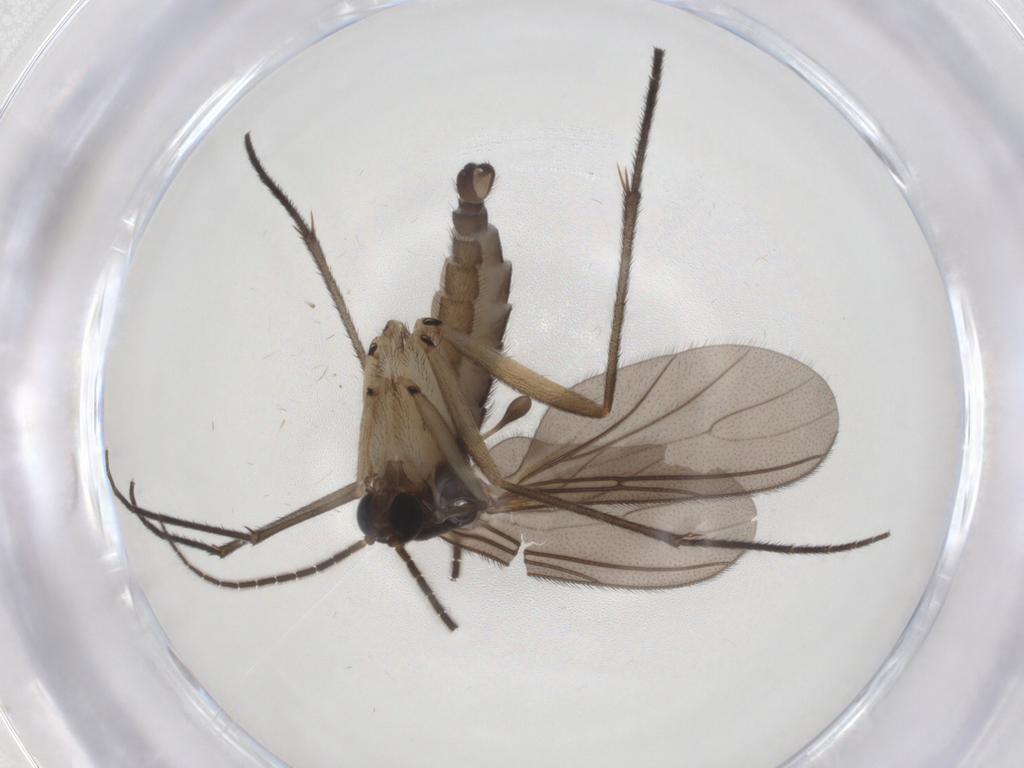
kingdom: Animalia
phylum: Arthropoda
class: Insecta
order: Diptera
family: Sciaridae
